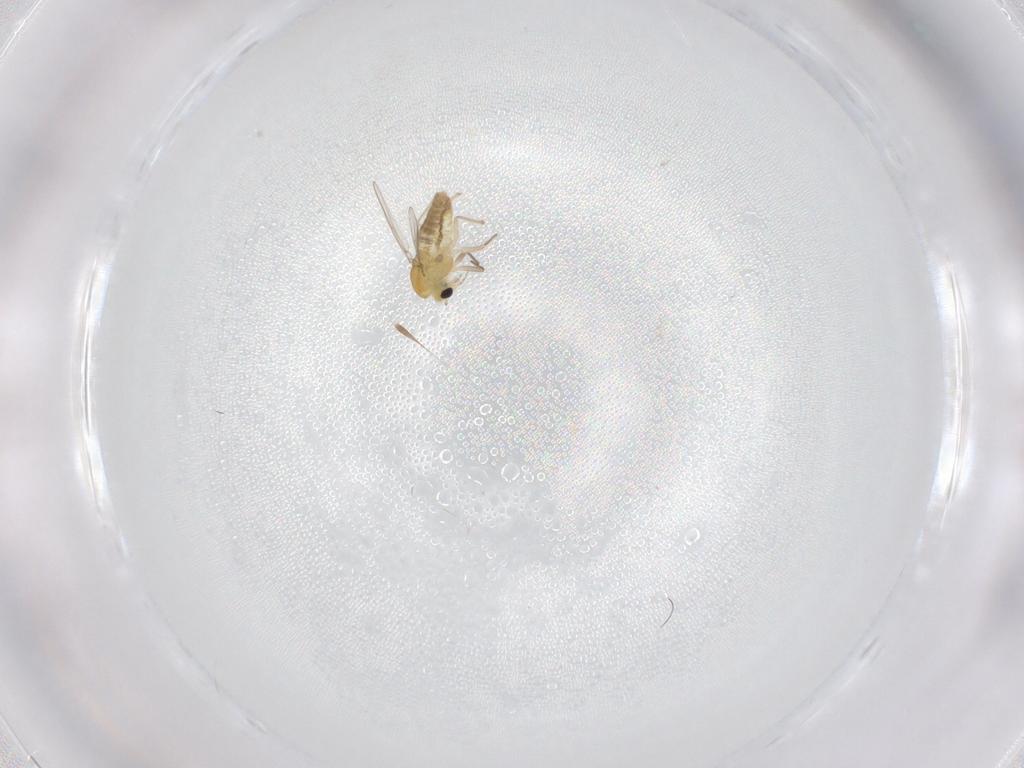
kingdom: Animalia
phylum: Arthropoda
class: Insecta
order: Diptera
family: Chironomidae
